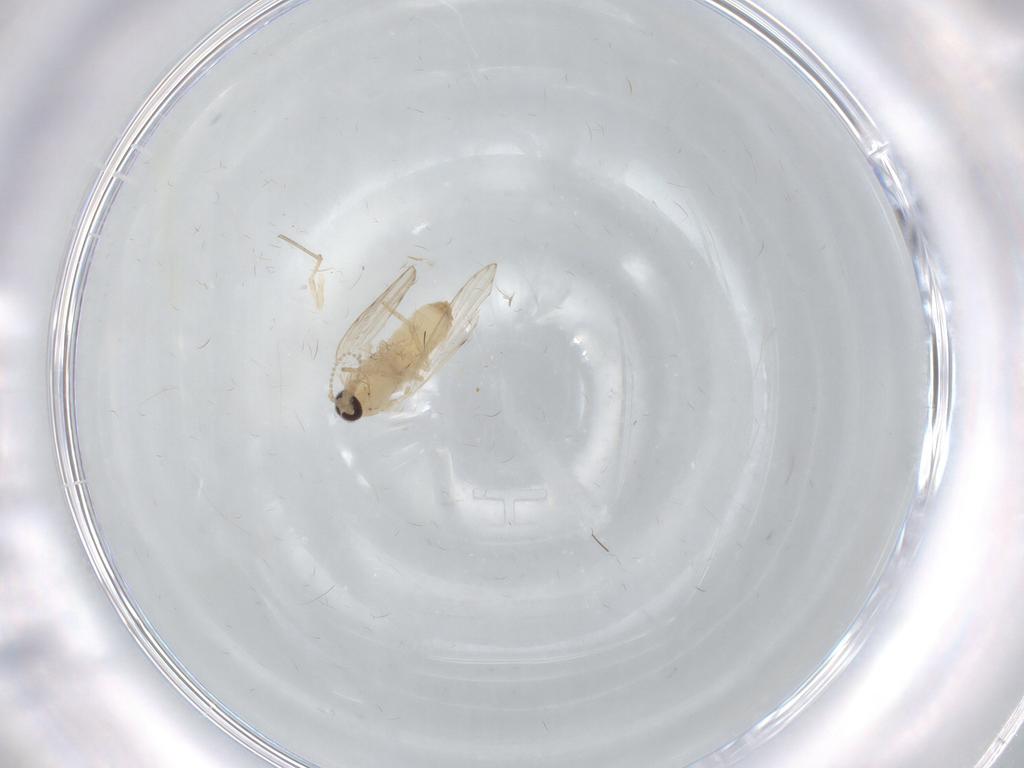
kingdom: Animalia
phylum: Arthropoda
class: Insecta
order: Diptera
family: Psychodidae
